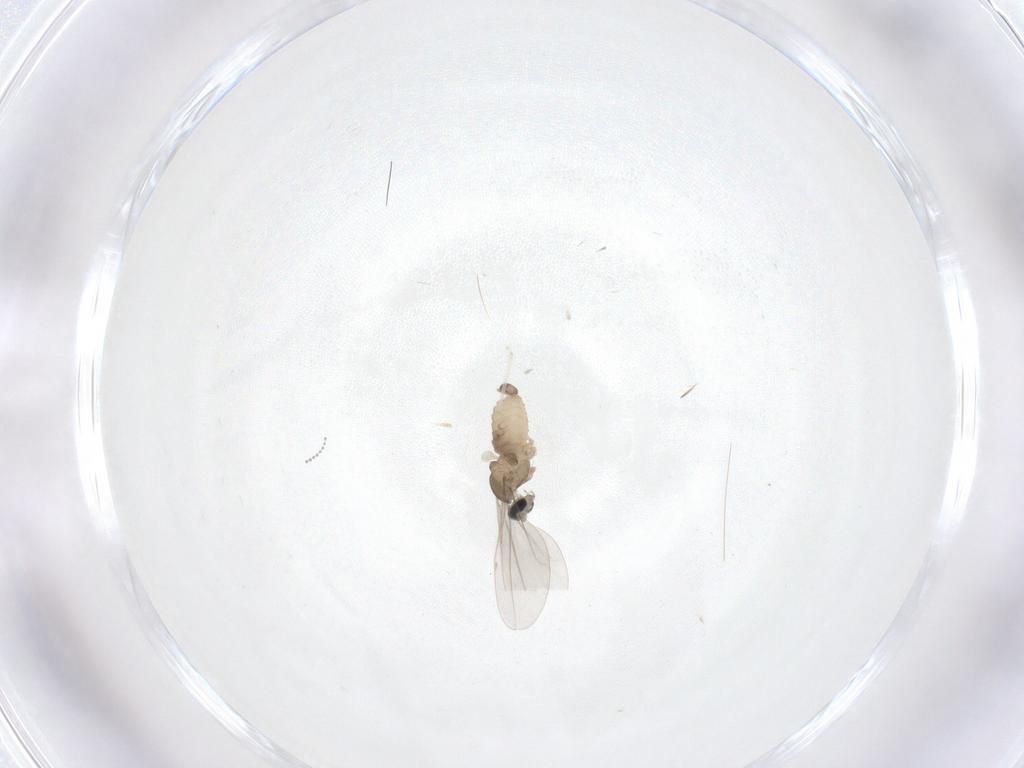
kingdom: Animalia
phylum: Arthropoda
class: Insecta
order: Diptera
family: Cecidomyiidae
